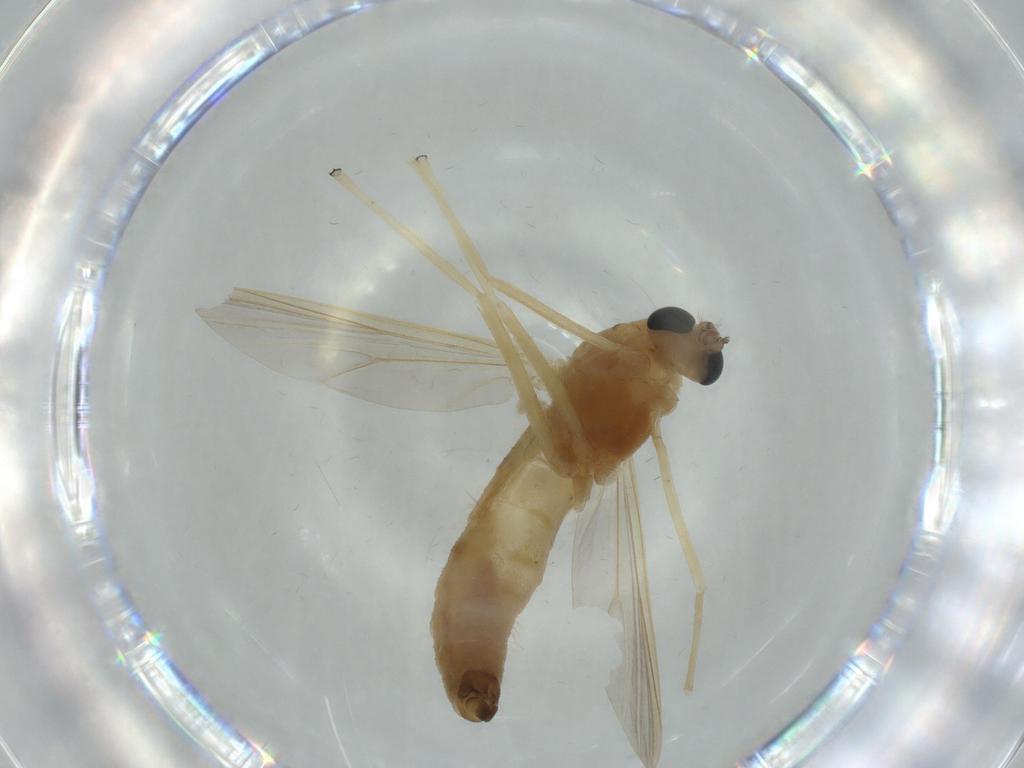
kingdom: Animalia
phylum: Arthropoda
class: Insecta
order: Diptera
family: Chironomidae
